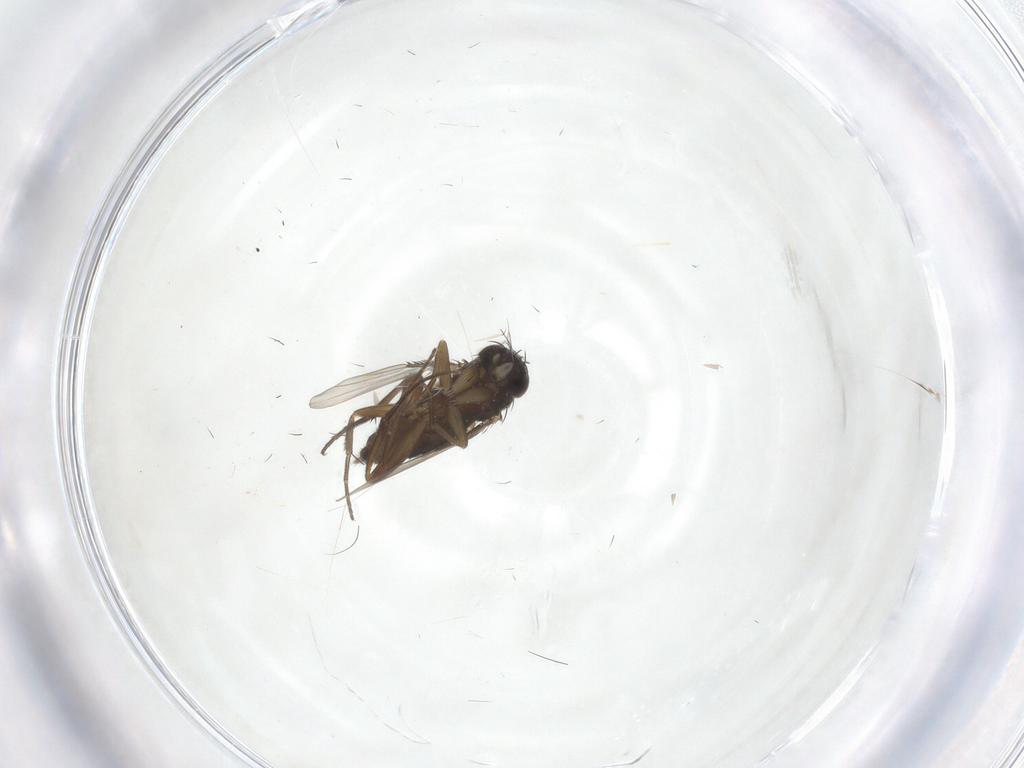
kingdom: Animalia
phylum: Arthropoda
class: Insecta
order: Diptera
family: Phoridae
